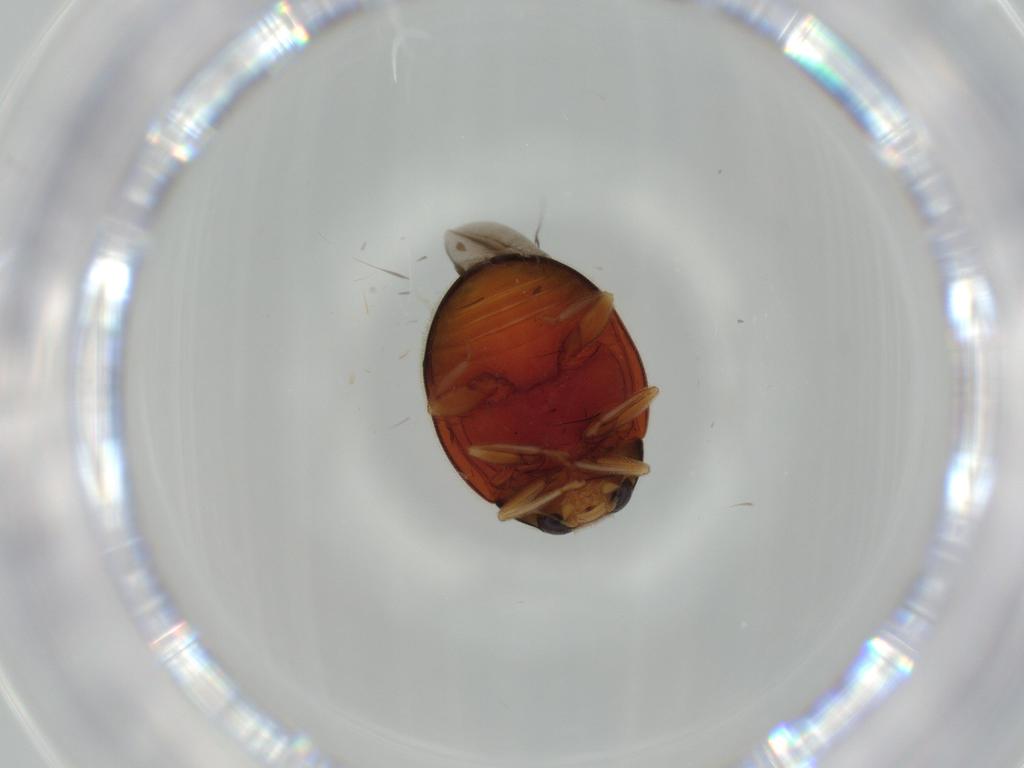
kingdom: Animalia
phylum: Arthropoda
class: Insecta
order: Coleoptera
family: Coccinellidae
